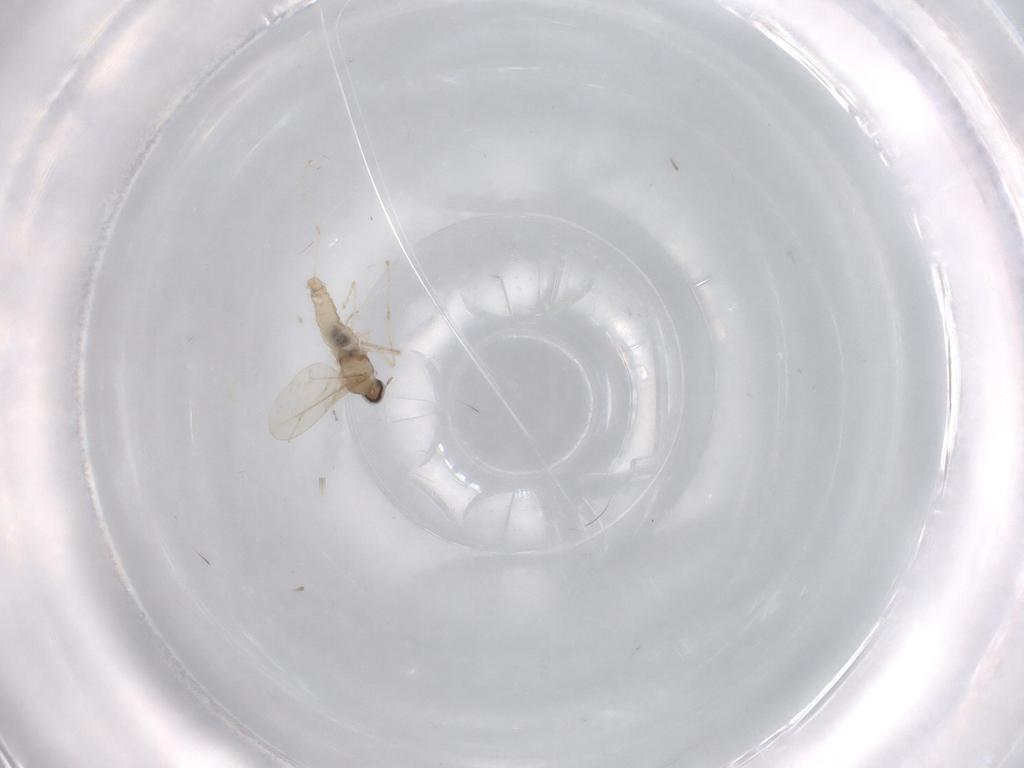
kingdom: Animalia
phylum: Arthropoda
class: Insecta
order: Diptera
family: Cecidomyiidae
